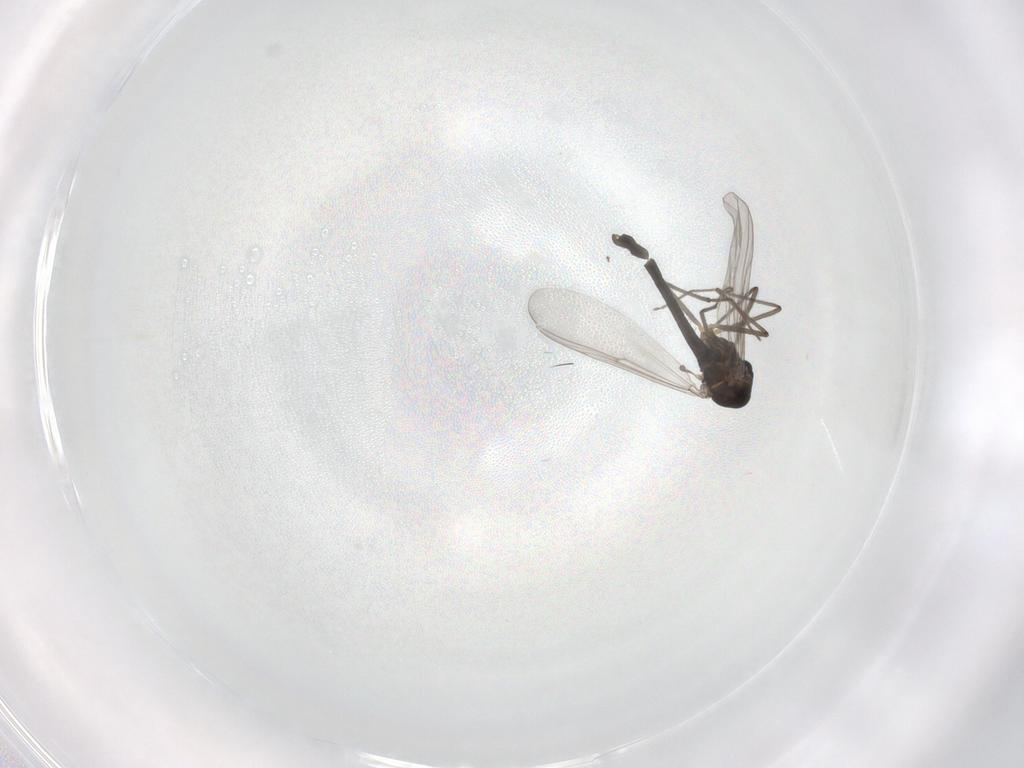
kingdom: Animalia
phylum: Arthropoda
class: Insecta
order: Diptera
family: Chironomidae
